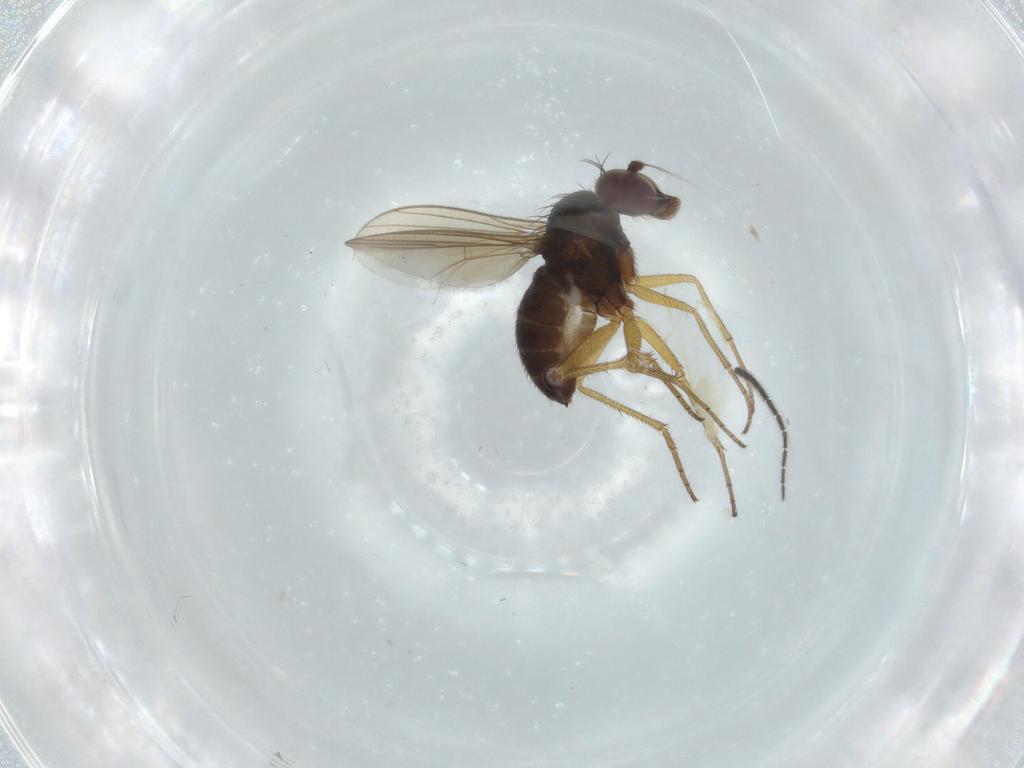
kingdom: Animalia
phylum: Arthropoda
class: Insecta
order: Diptera
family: Dolichopodidae
